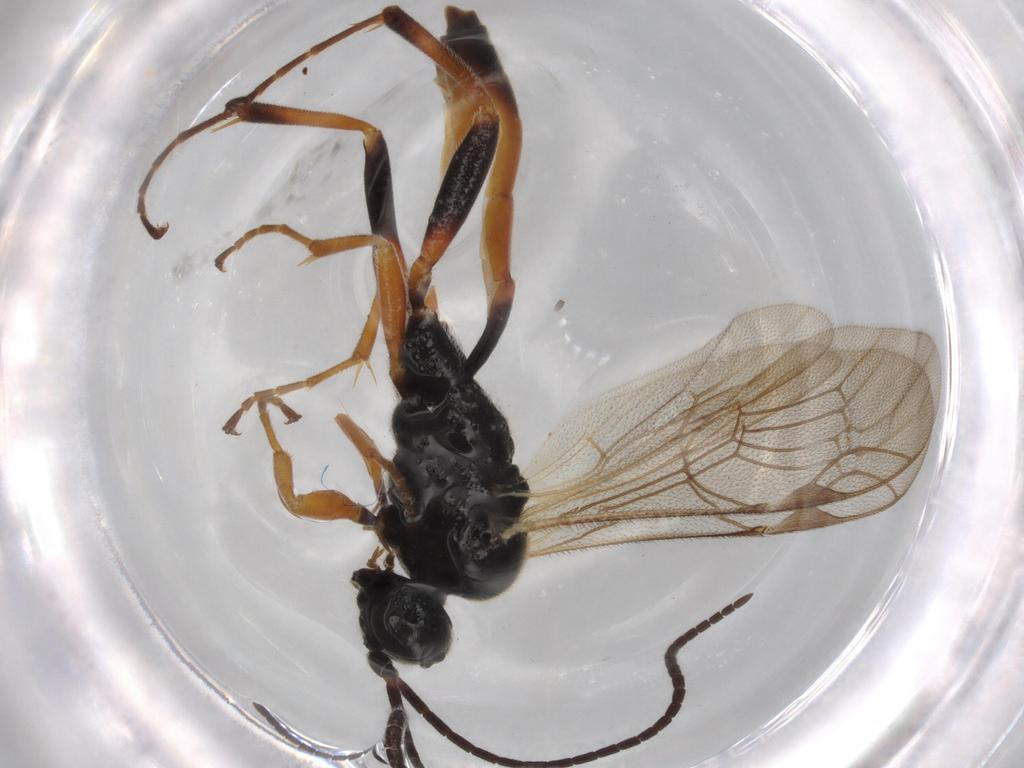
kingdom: Animalia
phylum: Arthropoda
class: Insecta
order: Hymenoptera
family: Ichneumonidae
